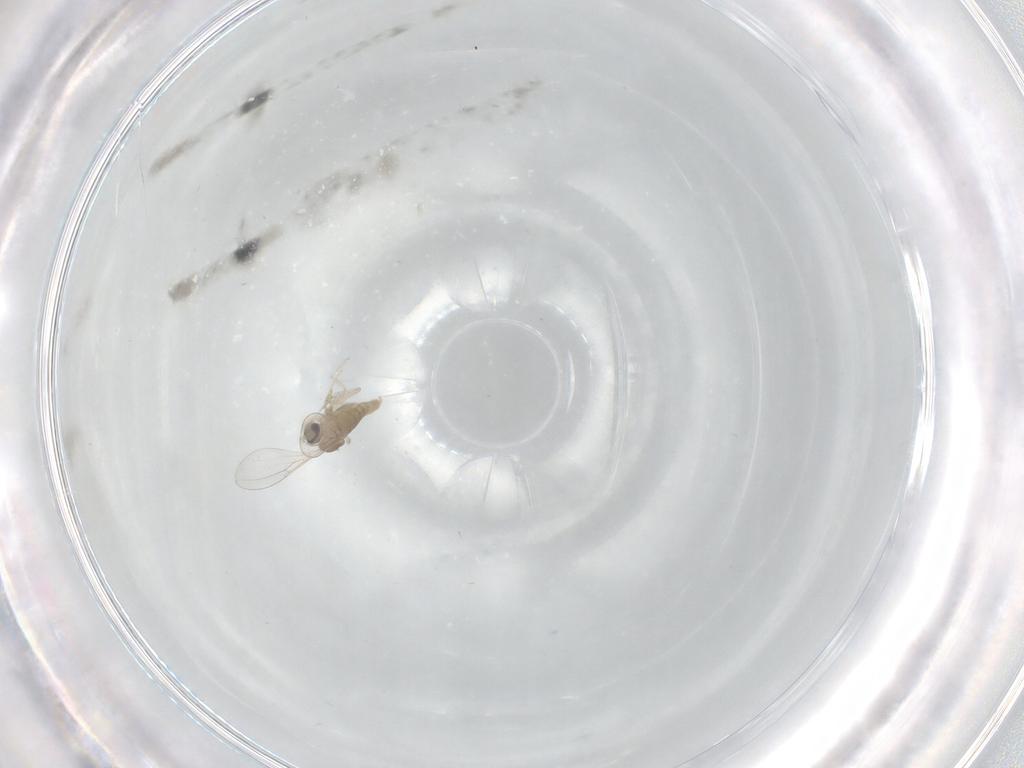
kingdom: Animalia
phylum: Arthropoda
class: Insecta
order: Diptera
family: Cecidomyiidae
